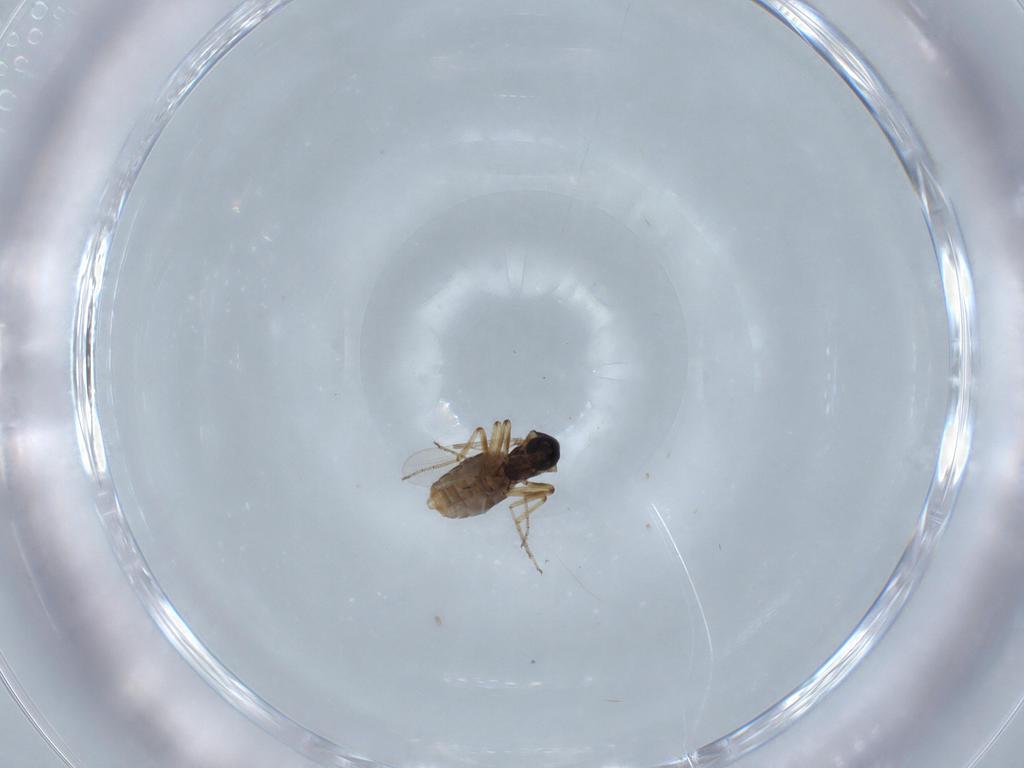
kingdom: Animalia
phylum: Arthropoda
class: Insecta
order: Diptera
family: Ceratopogonidae
